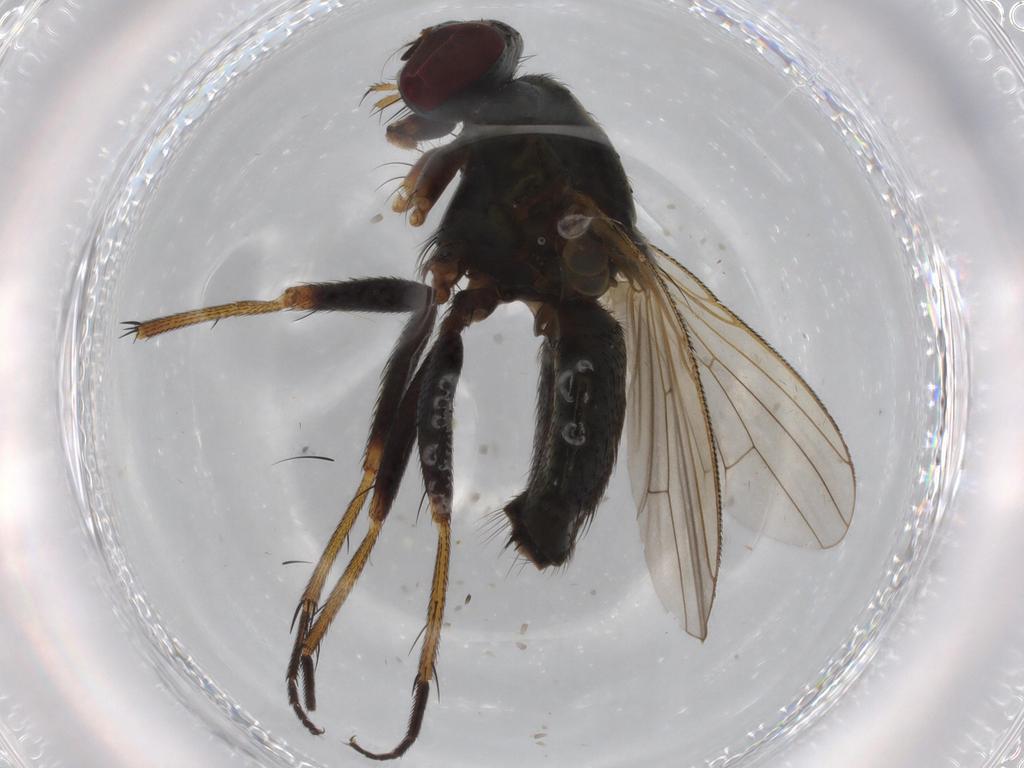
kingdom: Animalia
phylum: Arthropoda
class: Insecta
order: Diptera
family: Muscidae
